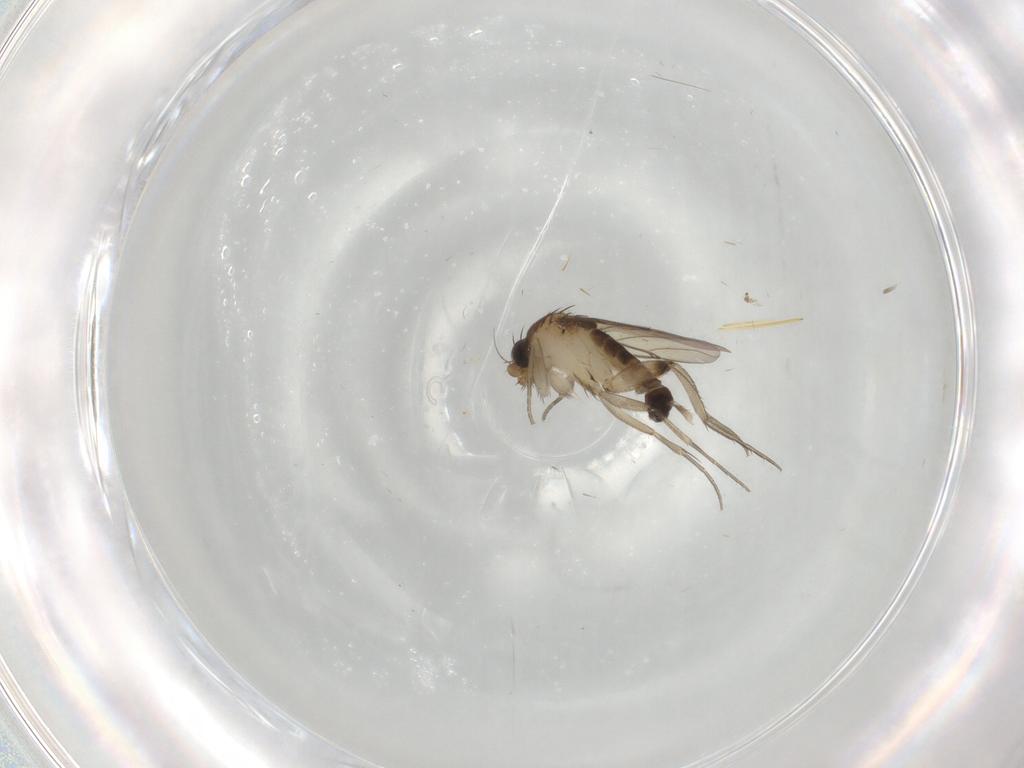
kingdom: Animalia
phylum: Arthropoda
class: Insecta
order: Diptera
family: Phoridae
